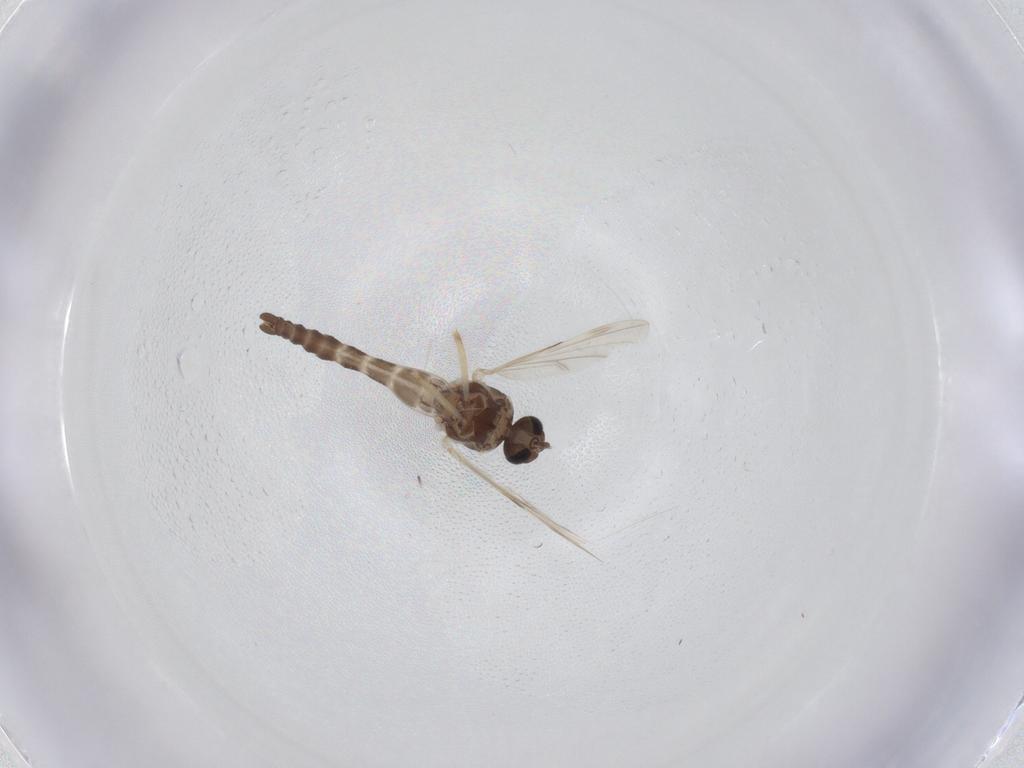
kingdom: Animalia
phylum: Arthropoda
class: Insecta
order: Diptera
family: Ceratopogonidae
